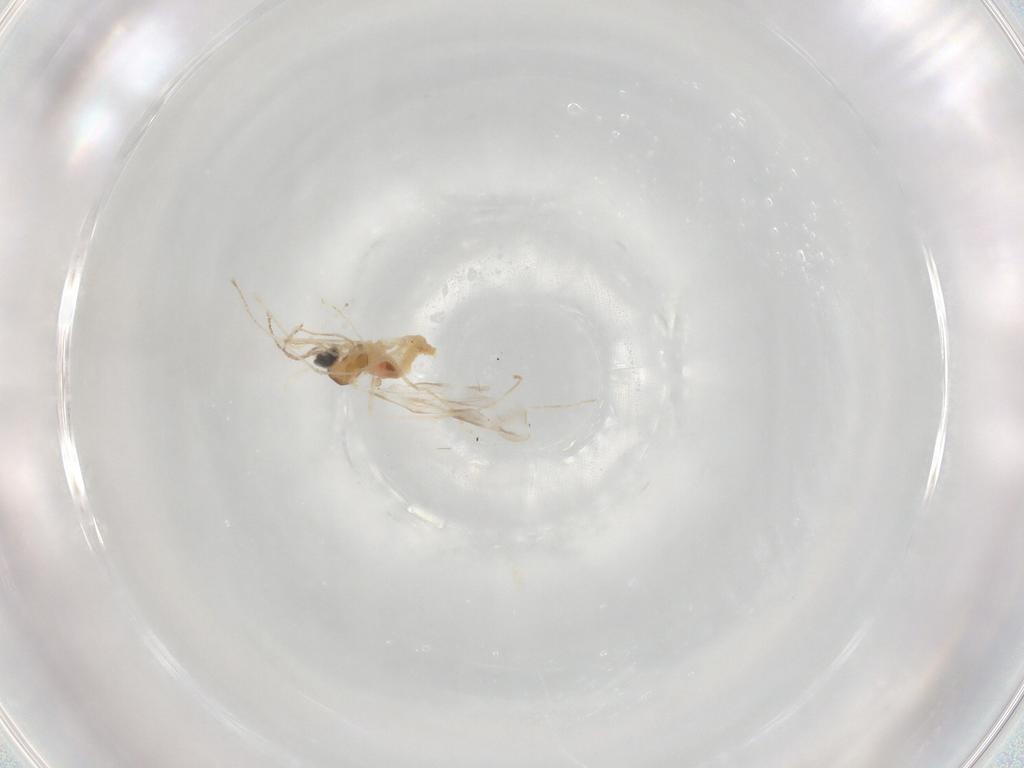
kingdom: Animalia
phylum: Arthropoda
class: Insecta
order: Diptera
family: Cecidomyiidae
